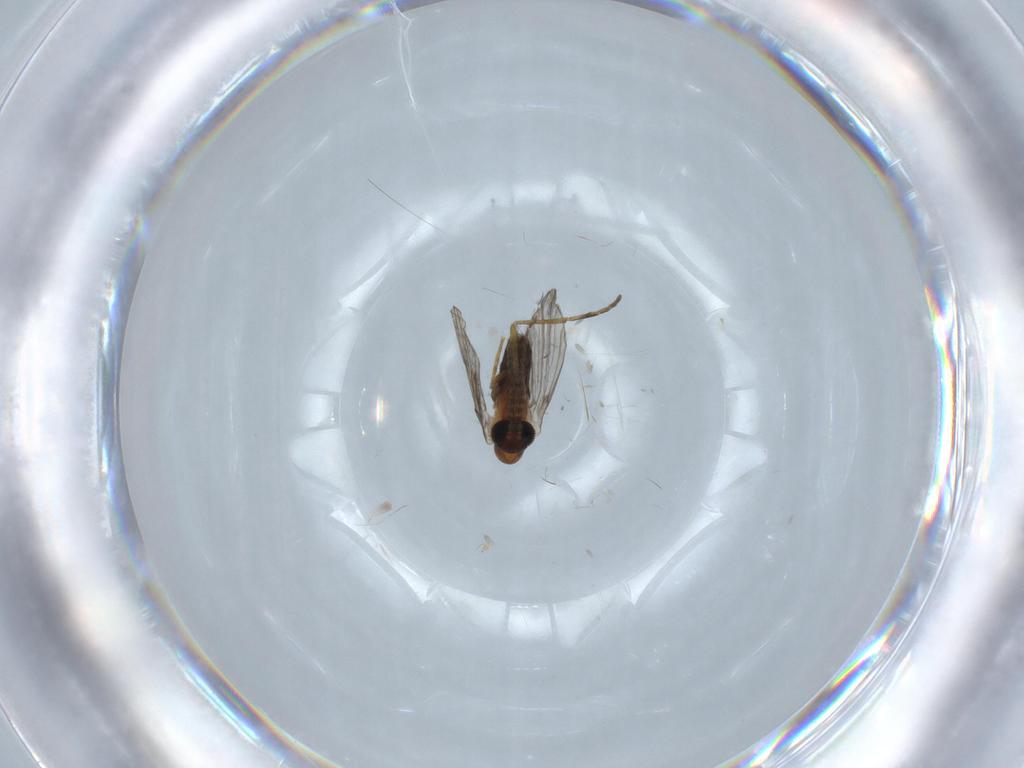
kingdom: Animalia
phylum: Arthropoda
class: Insecta
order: Diptera
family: Psychodidae
